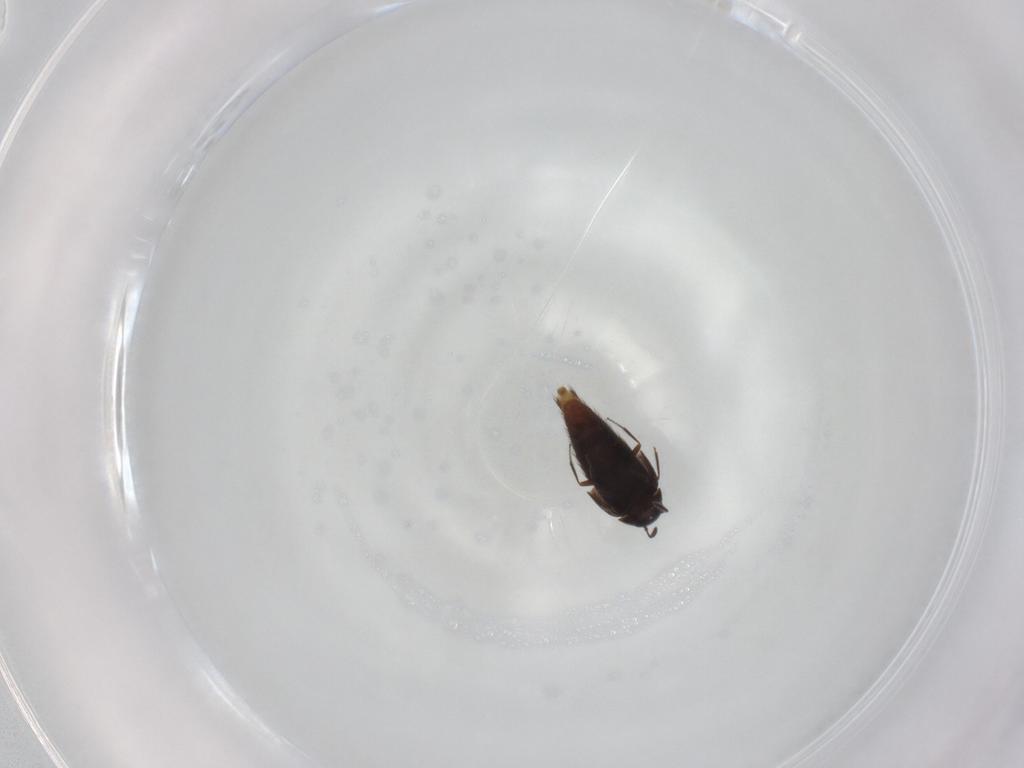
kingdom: Animalia
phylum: Arthropoda
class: Insecta
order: Coleoptera
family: Staphylinidae
